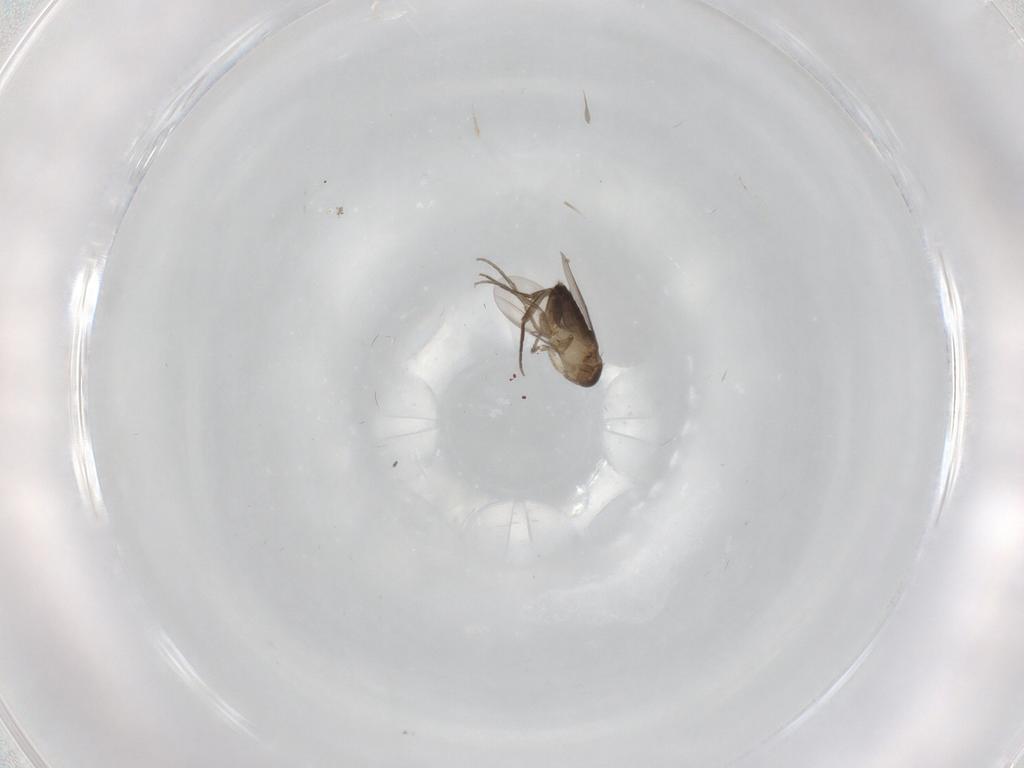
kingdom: Animalia
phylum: Arthropoda
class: Insecta
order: Diptera
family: Phoridae
